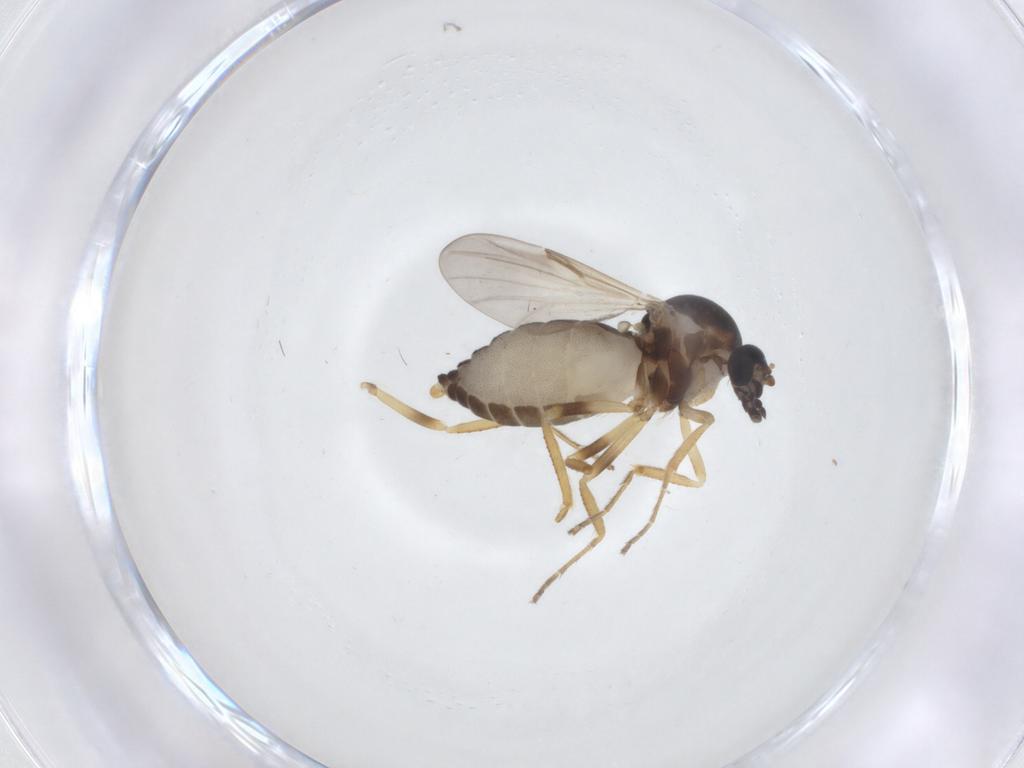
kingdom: Animalia
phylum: Arthropoda
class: Insecta
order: Diptera
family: Ceratopogonidae
